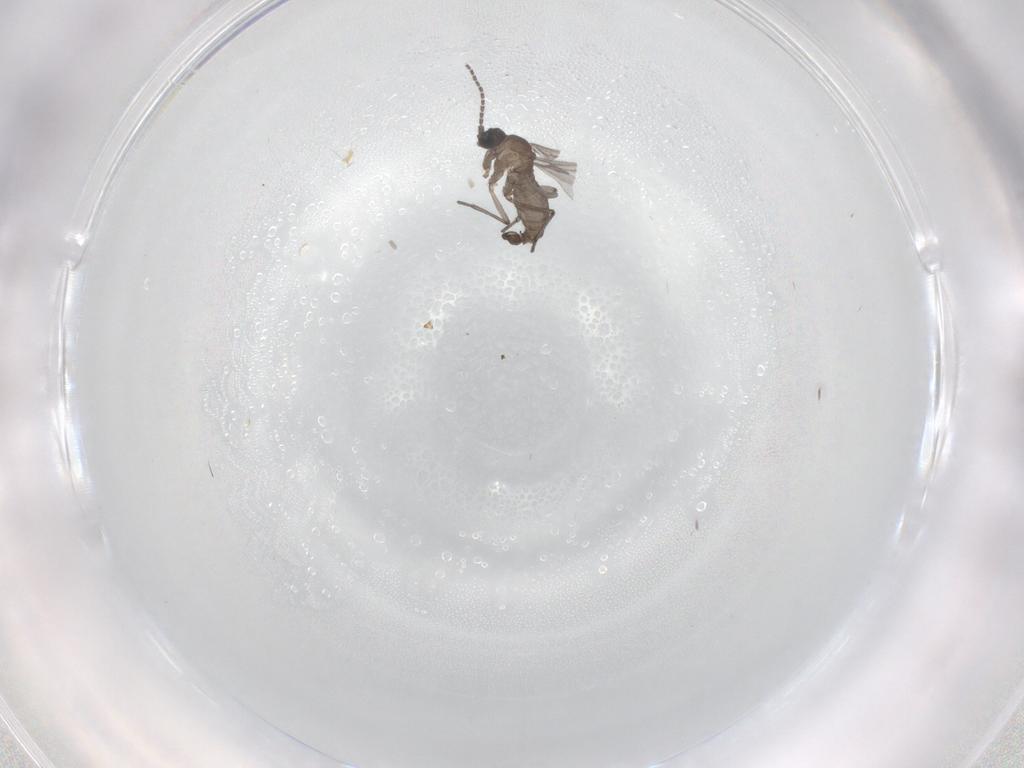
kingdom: Animalia
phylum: Arthropoda
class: Insecta
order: Diptera
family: Sciaridae
